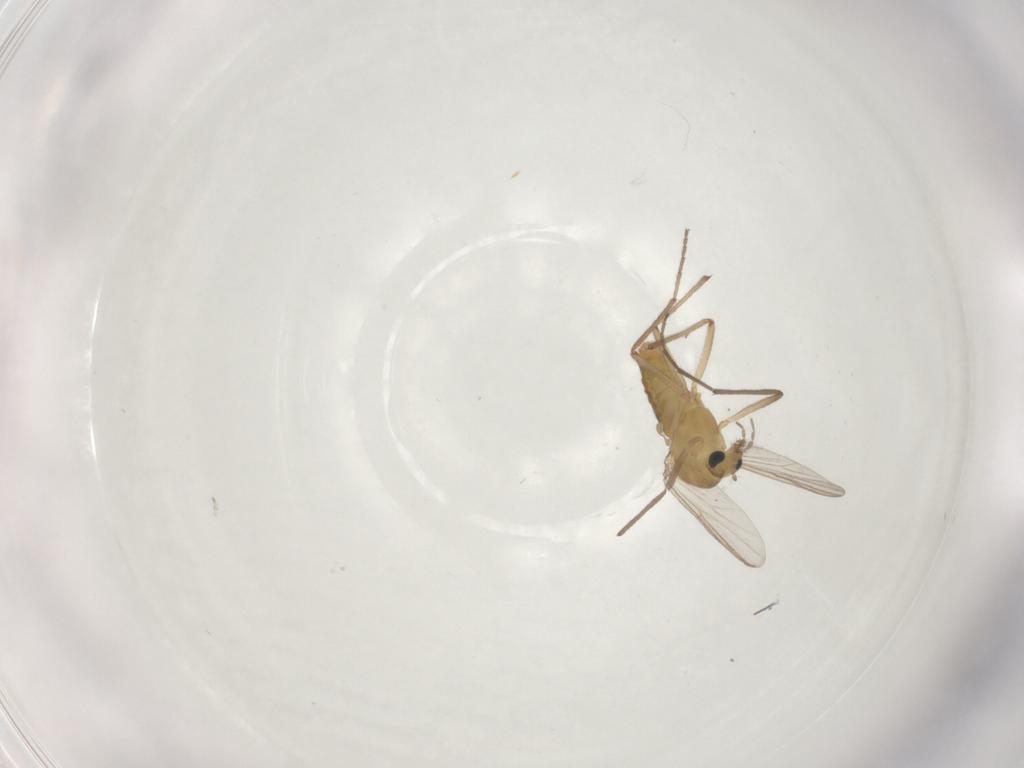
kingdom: Animalia
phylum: Arthropoda
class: Insecta
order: Diptera
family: Chironomidae
